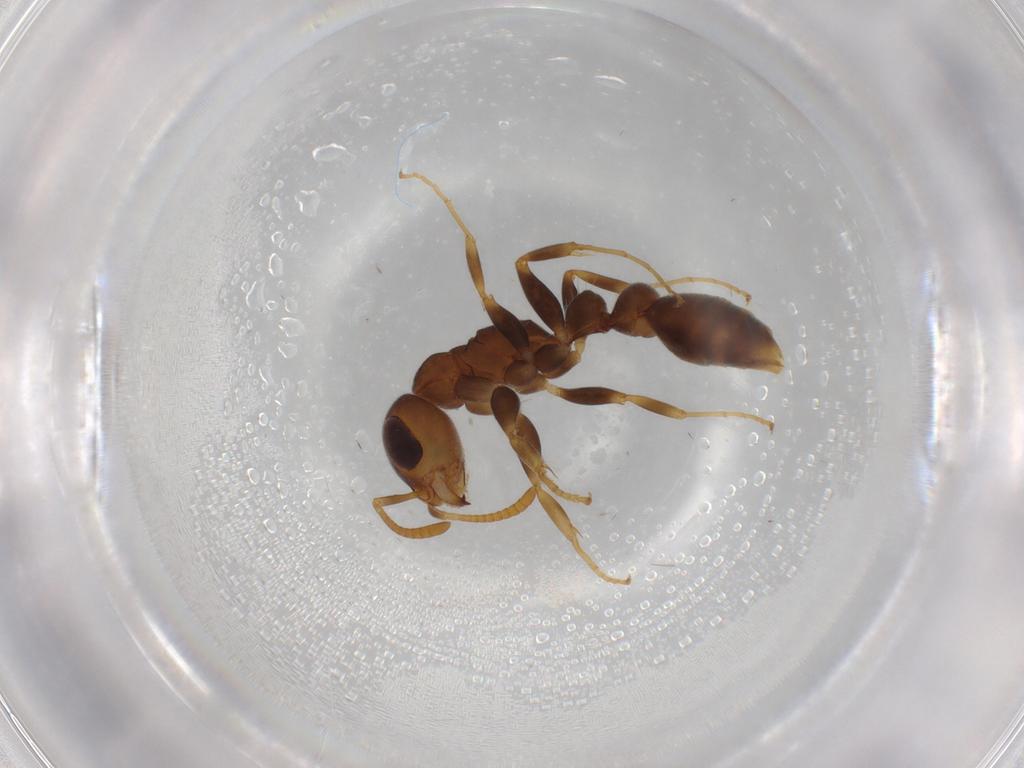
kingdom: Animalia
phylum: Arthropoda
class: Insecta
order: Hymenoptera
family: Formicidae
